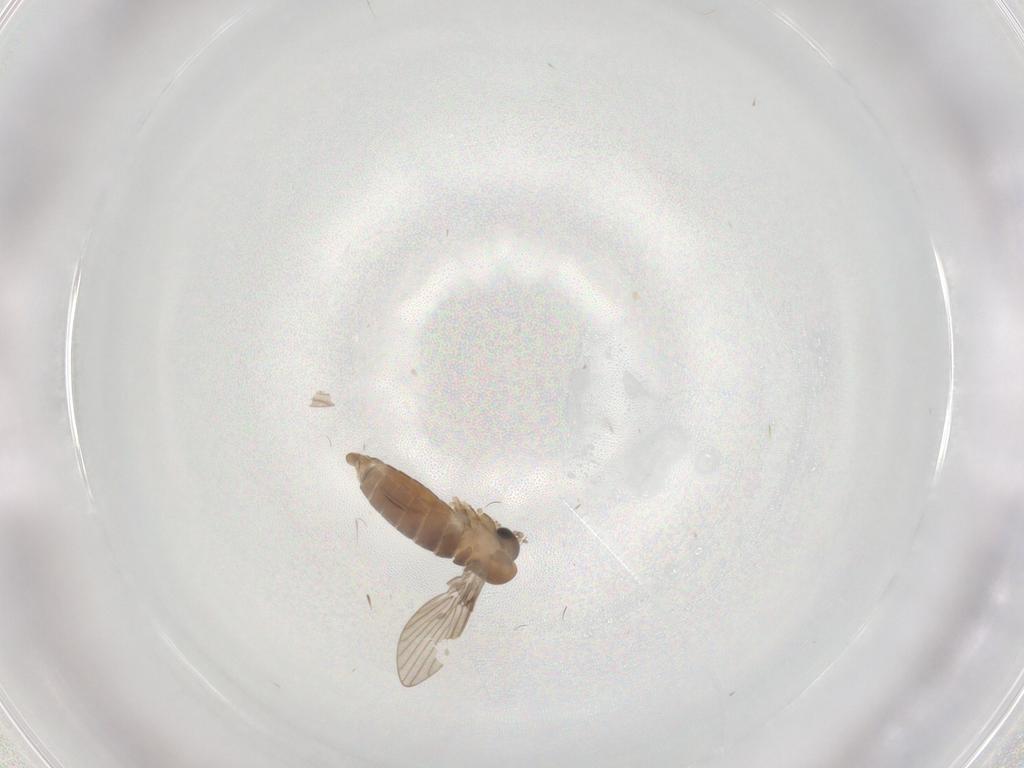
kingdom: Animalia
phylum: Arthropoda
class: Insecta
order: Diptera
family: Psychodidae
